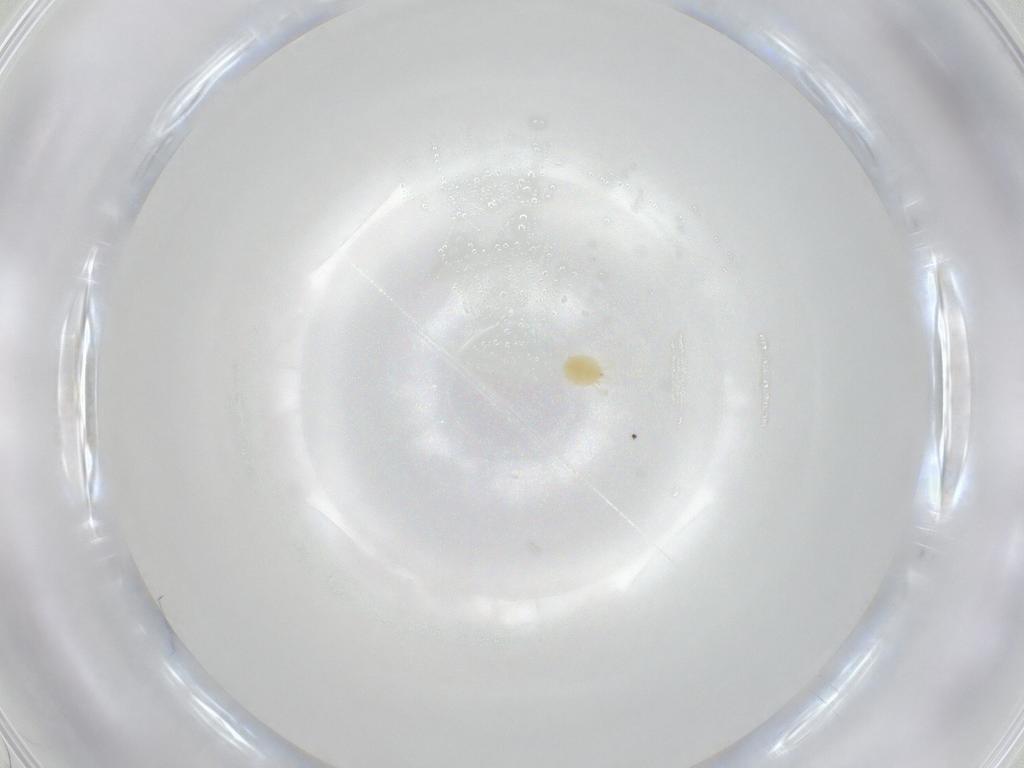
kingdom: Animalia
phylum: Arthropoda
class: Arachnida
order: Trombidiformes
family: Tetranychidae
